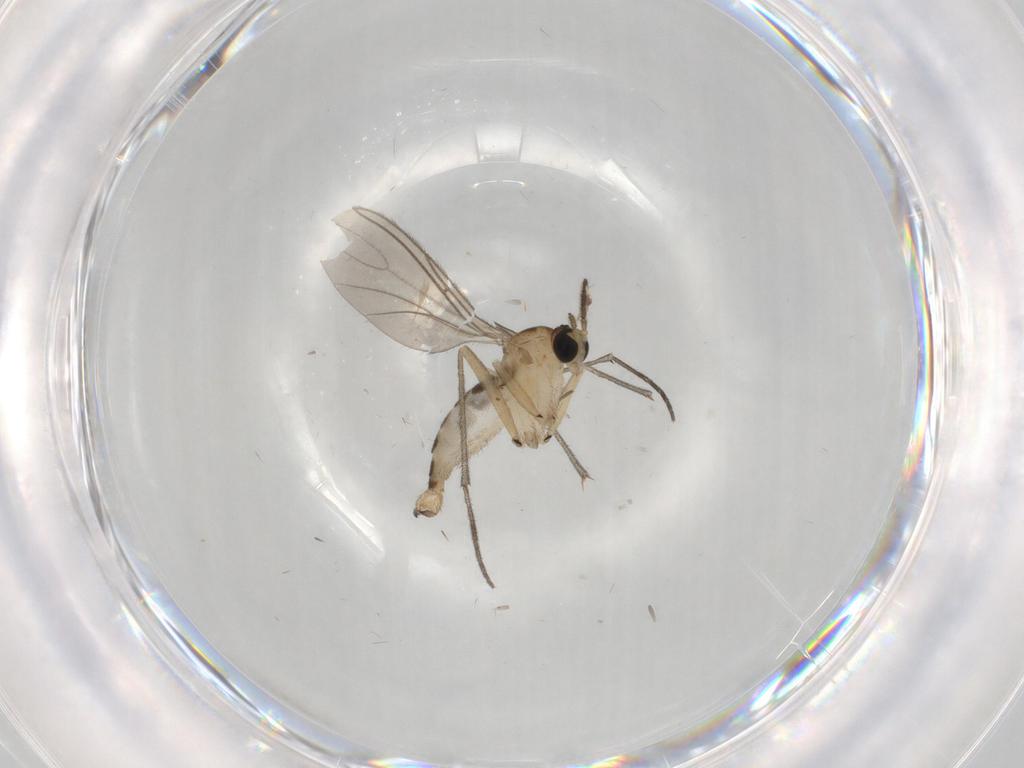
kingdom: Animalia
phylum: Arthropoda
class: Insecta
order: Diptera
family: Sciaridae
